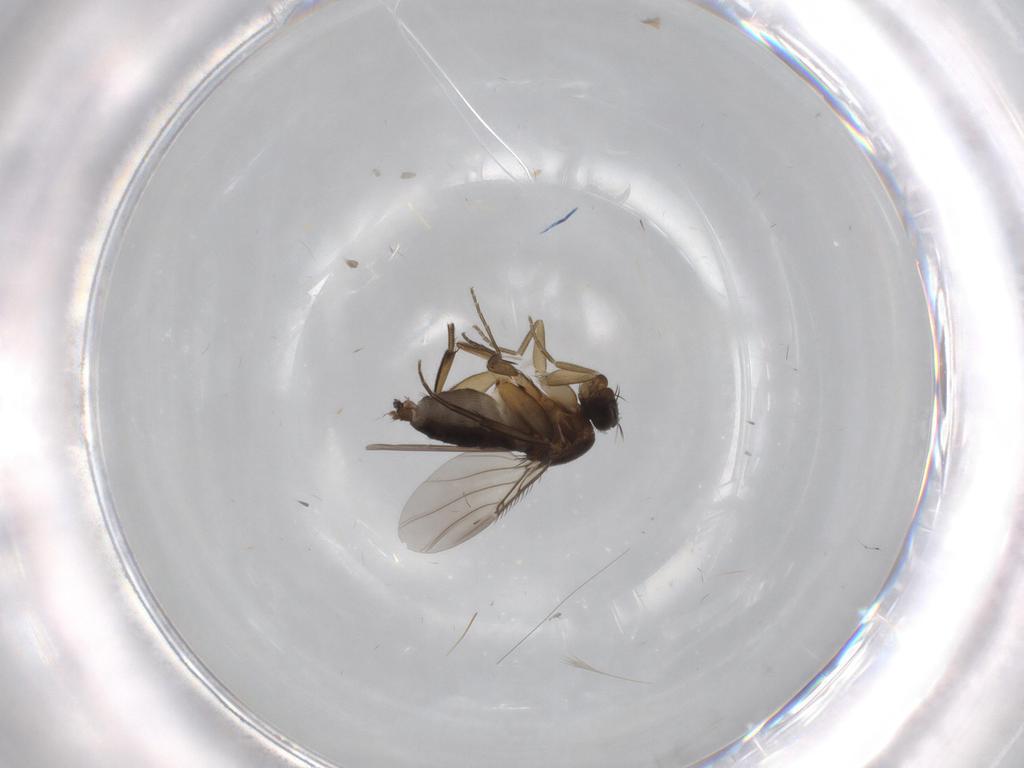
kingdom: Animalia
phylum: Arthropoda
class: Insecta
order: Diptera
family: Phoridae
